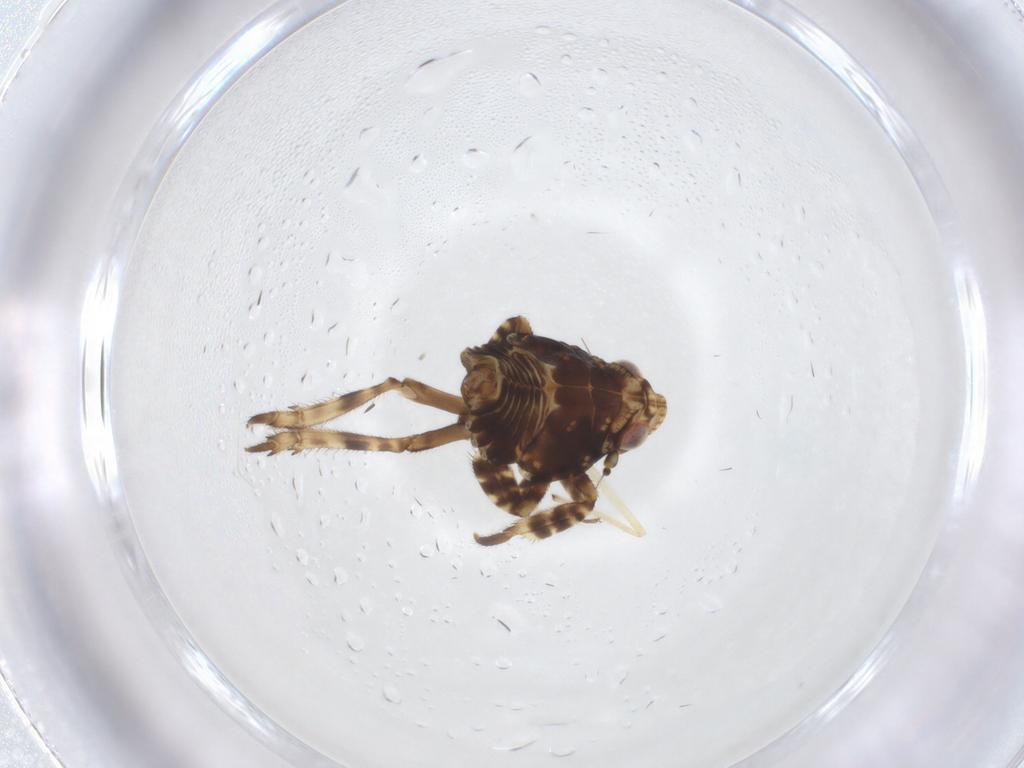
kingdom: Animalia
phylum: Arthropoda
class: Insecta
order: Hemiptera
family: Eurybrachidae
